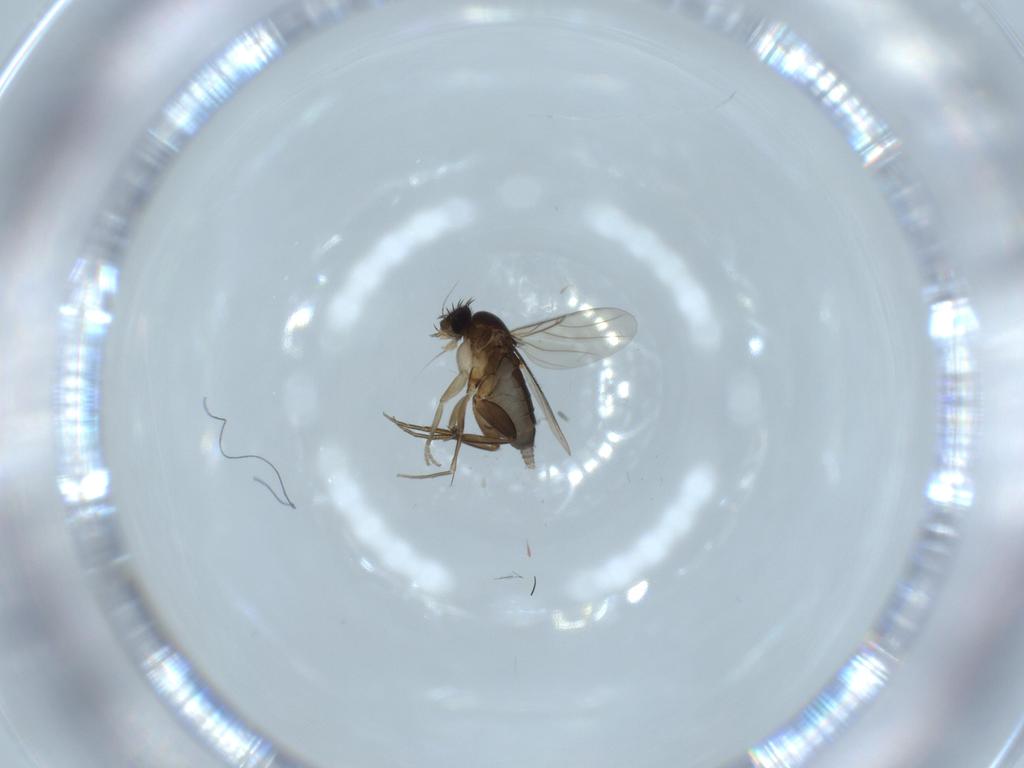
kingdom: Animalia
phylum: Arthropoda
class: Insecta
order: Diptera
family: Phoridae
